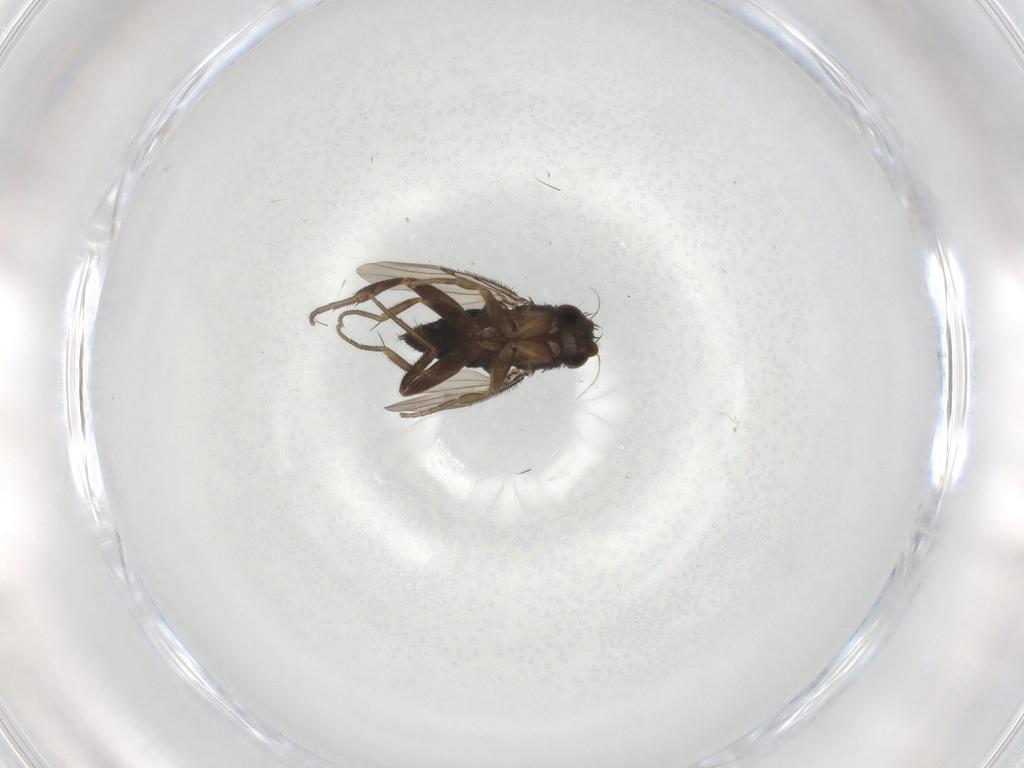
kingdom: Animalia
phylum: Arthropoda
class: Insecta
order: Diptera
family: Phoridae
